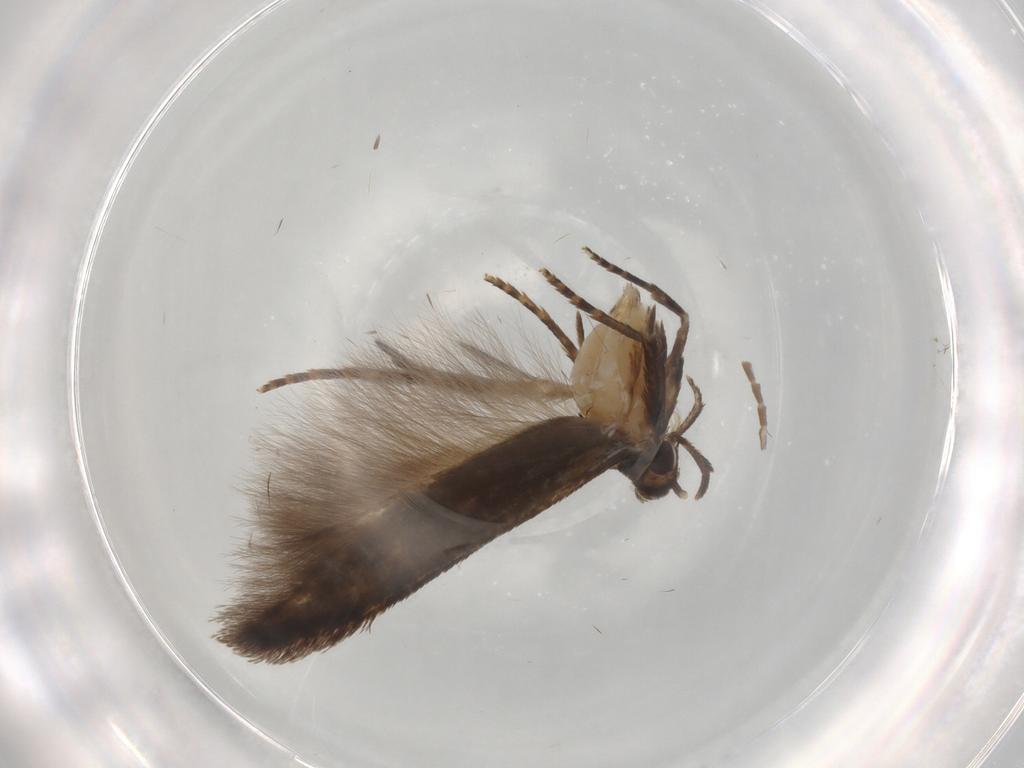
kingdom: Animalia
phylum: Arthropoda
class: Insecta
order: Lepidoptera
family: Cosmopterigidae
